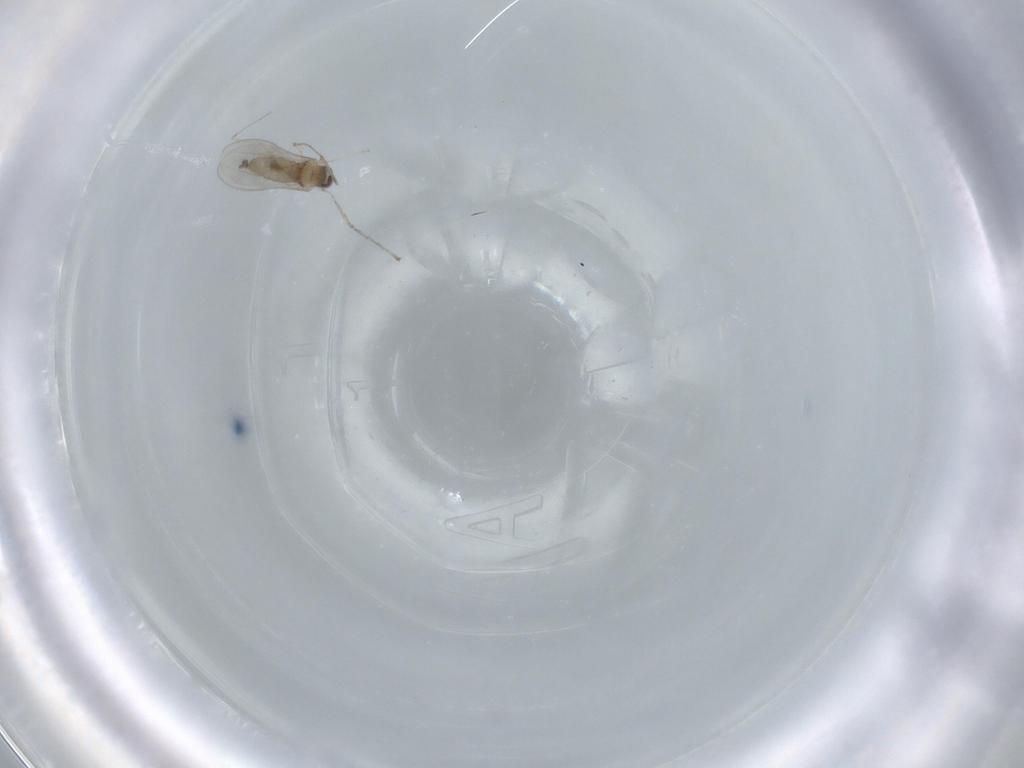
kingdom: Animalia
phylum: Arthropoda
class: Insecta
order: Diptera
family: Cecidomyiidae
